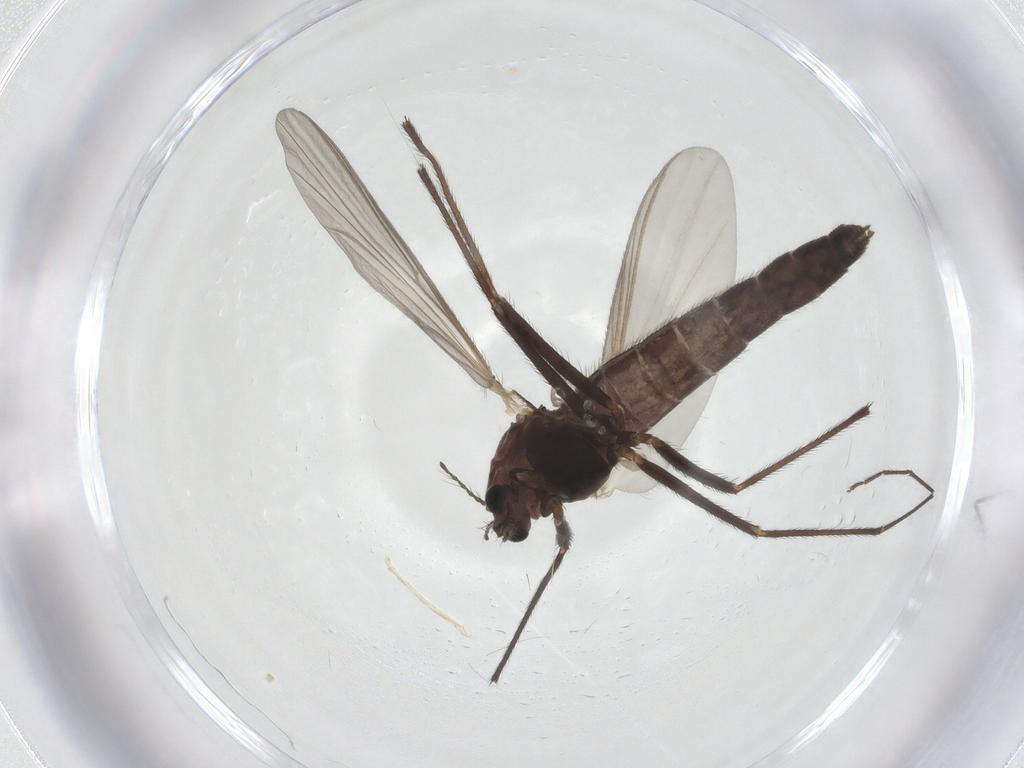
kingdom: Animalia
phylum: Arthropoda
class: Insecta
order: Diptera
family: Chironomidae
